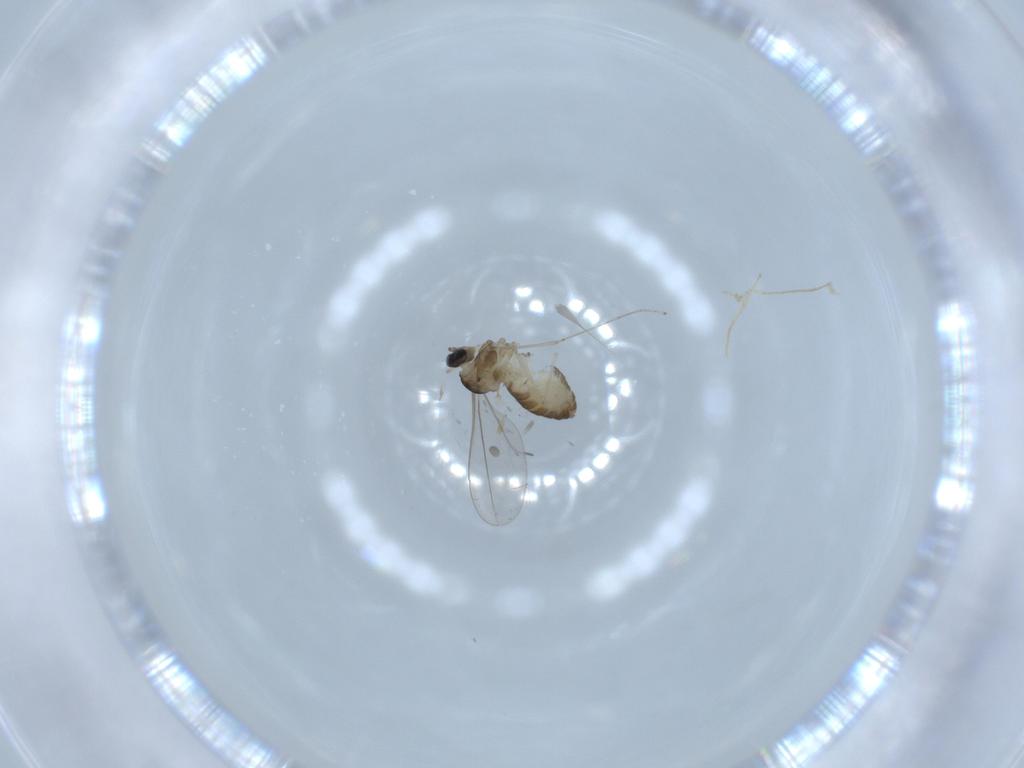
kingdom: Animalia
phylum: Arthropoda
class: Insecta
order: Diptera
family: Cecidomyiidae
